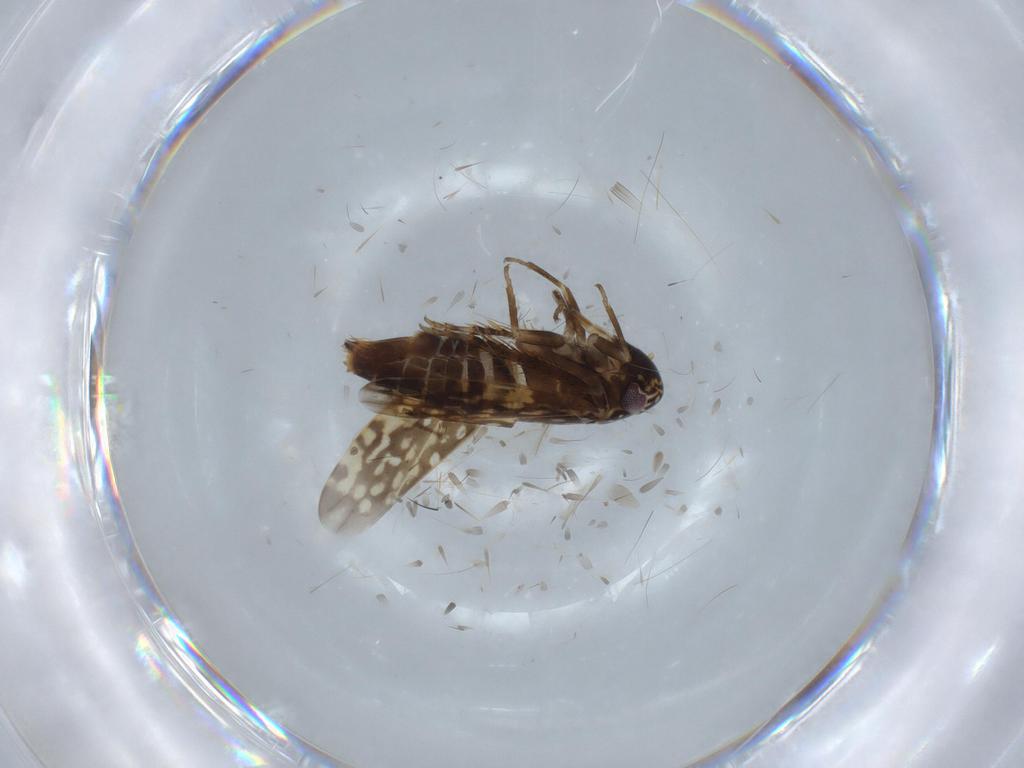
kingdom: Animalia
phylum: Arthropoda
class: Insecta
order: Hemiptera
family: Cicadellidae
